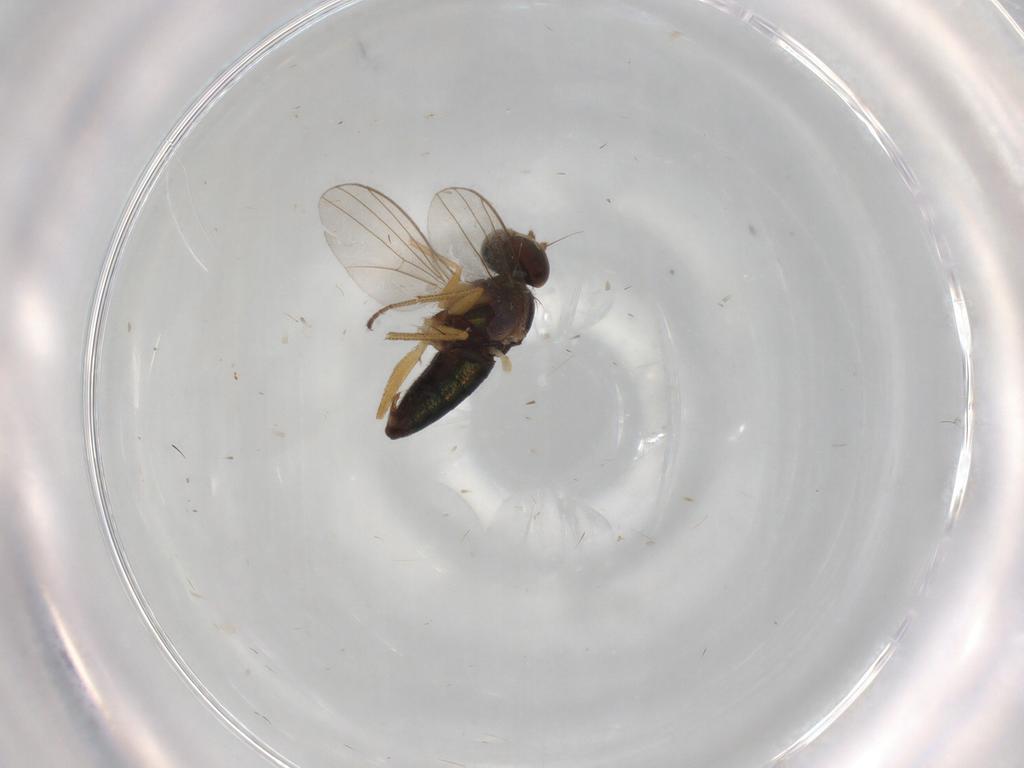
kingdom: Animalia
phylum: Arthropoda
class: Insecta
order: Diptera
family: Dolichopodidae
